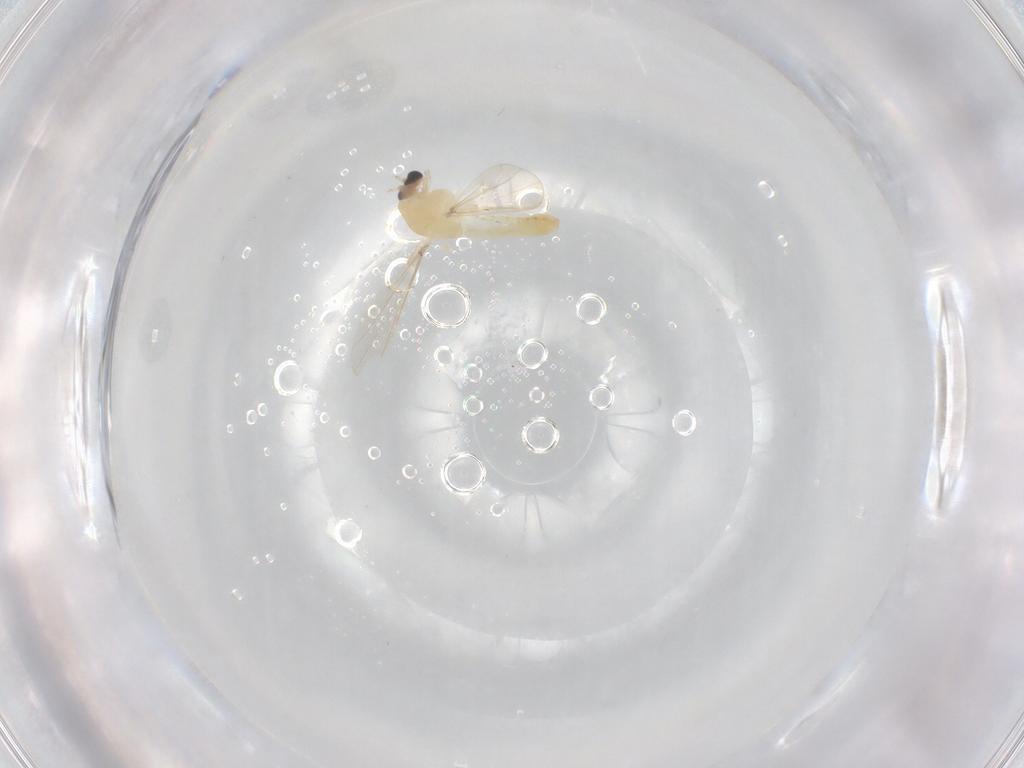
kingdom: Animalia
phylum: Arthropoda
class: Insecta
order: Diptera
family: Chironomidae
